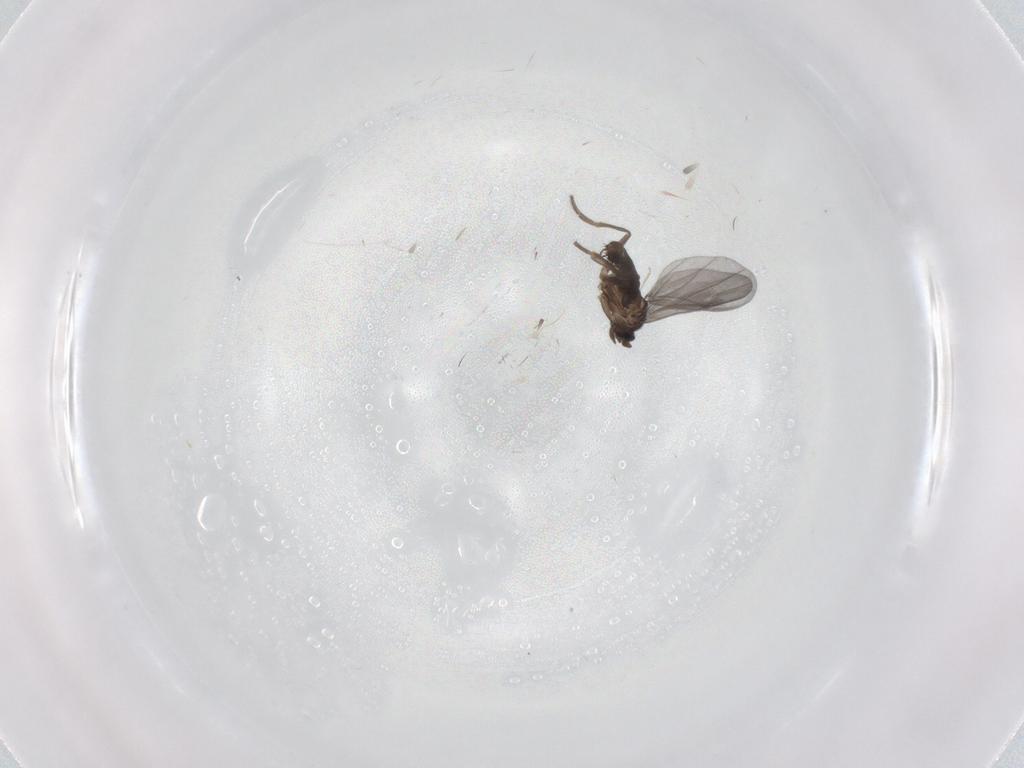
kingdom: Animalia
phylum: Arthropoda
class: Insecta
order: Diptera
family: Phoridae
